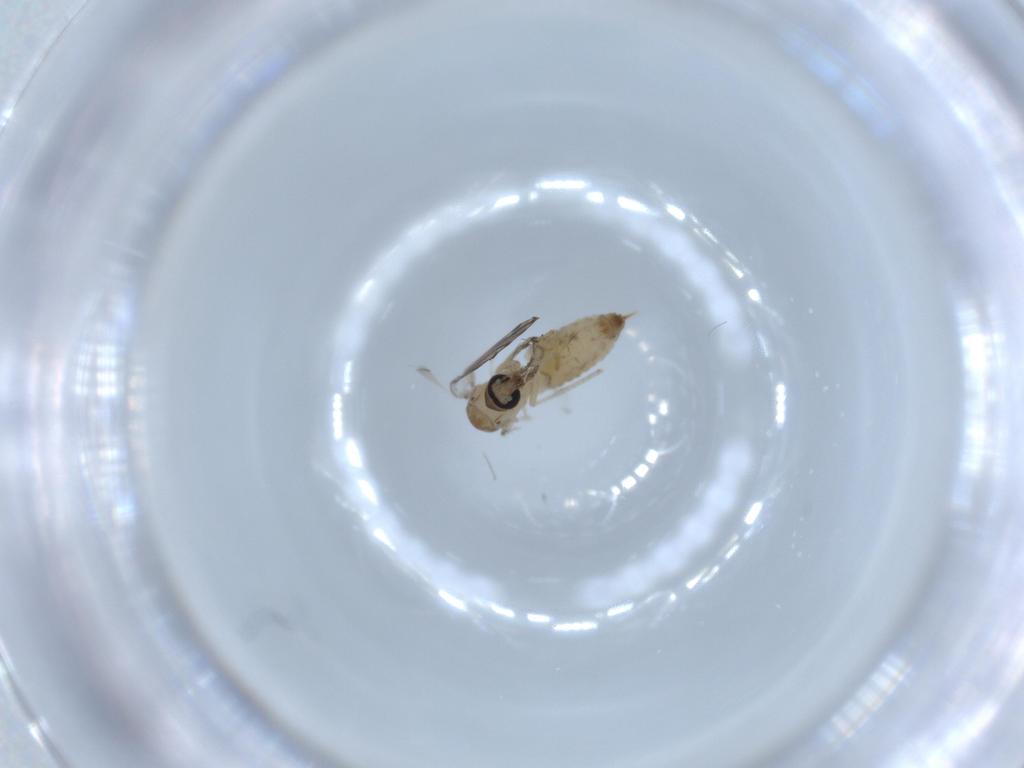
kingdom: Animalia
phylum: Arthropoda
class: Insecta
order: Diptera
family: Psychodidae
